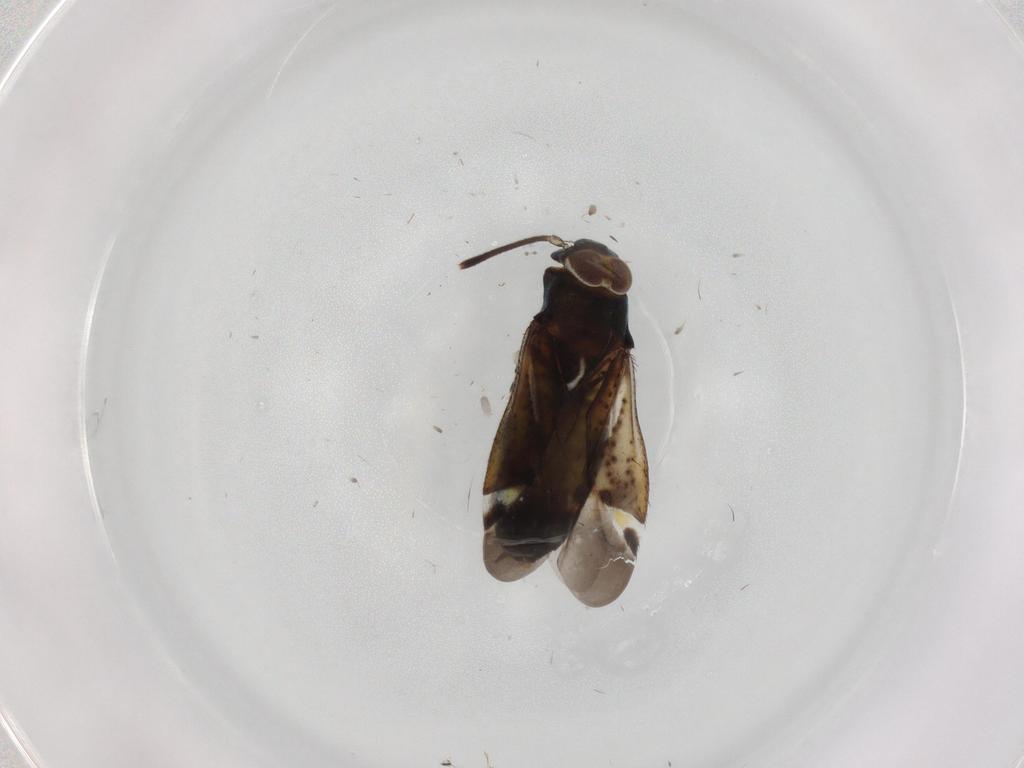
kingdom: Animalia
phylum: Arthropoda
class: Insecta
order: Hemiptera
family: Miridae
